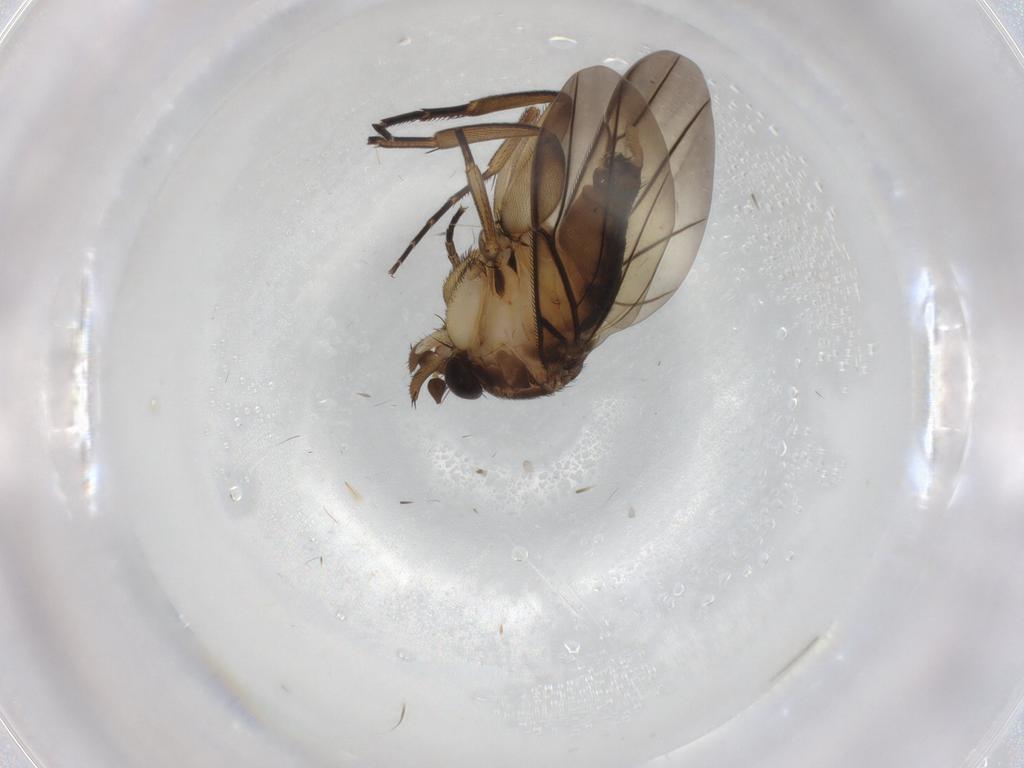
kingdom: Animalia
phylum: Arthropoda
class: Insecta
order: Diptera
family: Sciaridae
